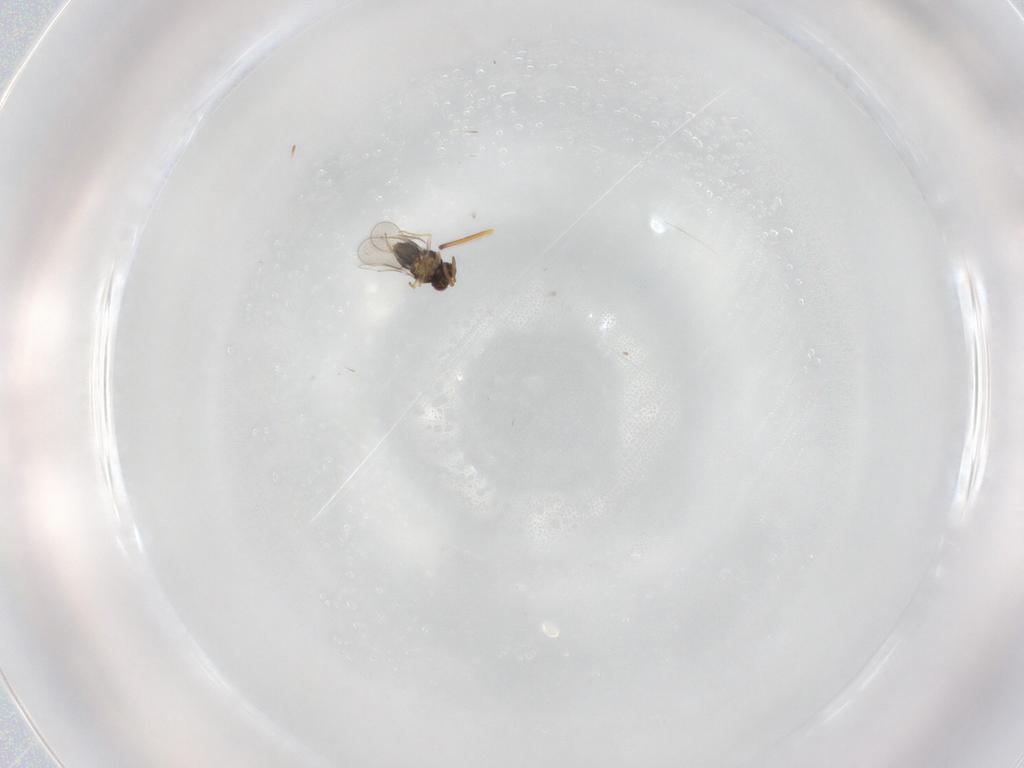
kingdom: Animalia
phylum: Arthropoda
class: Insecta
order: Hymenoptera
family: Aphelinidae
